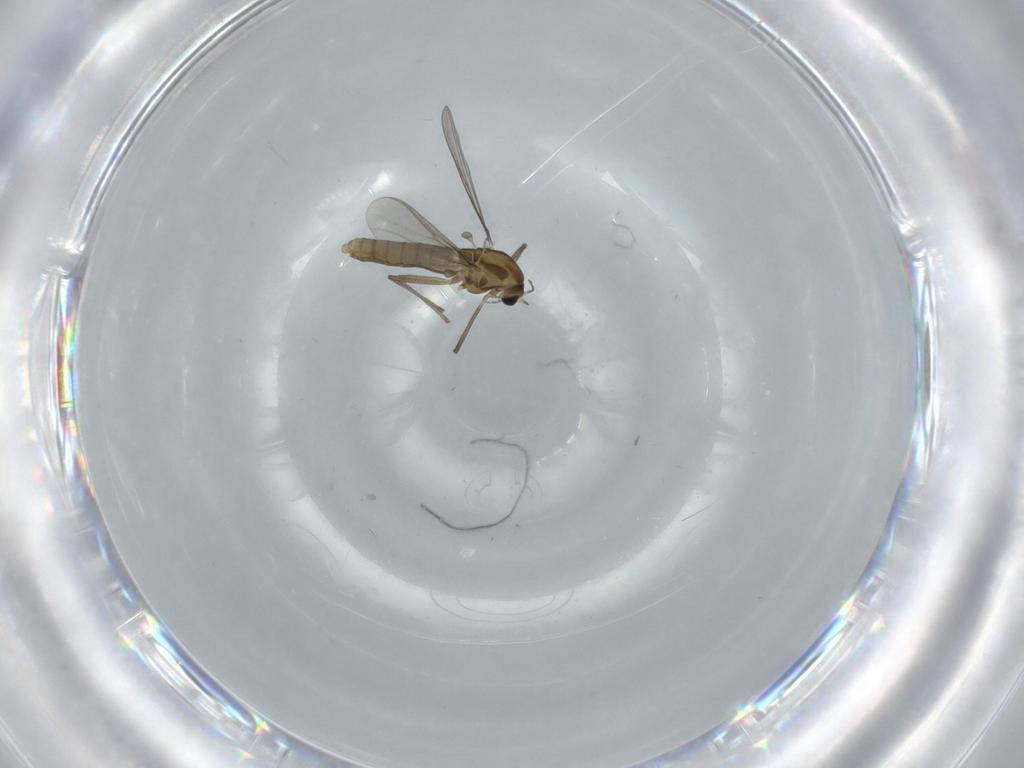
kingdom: Animalia
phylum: Arthropoda
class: Insecta
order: Diptera
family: Chironomidae
